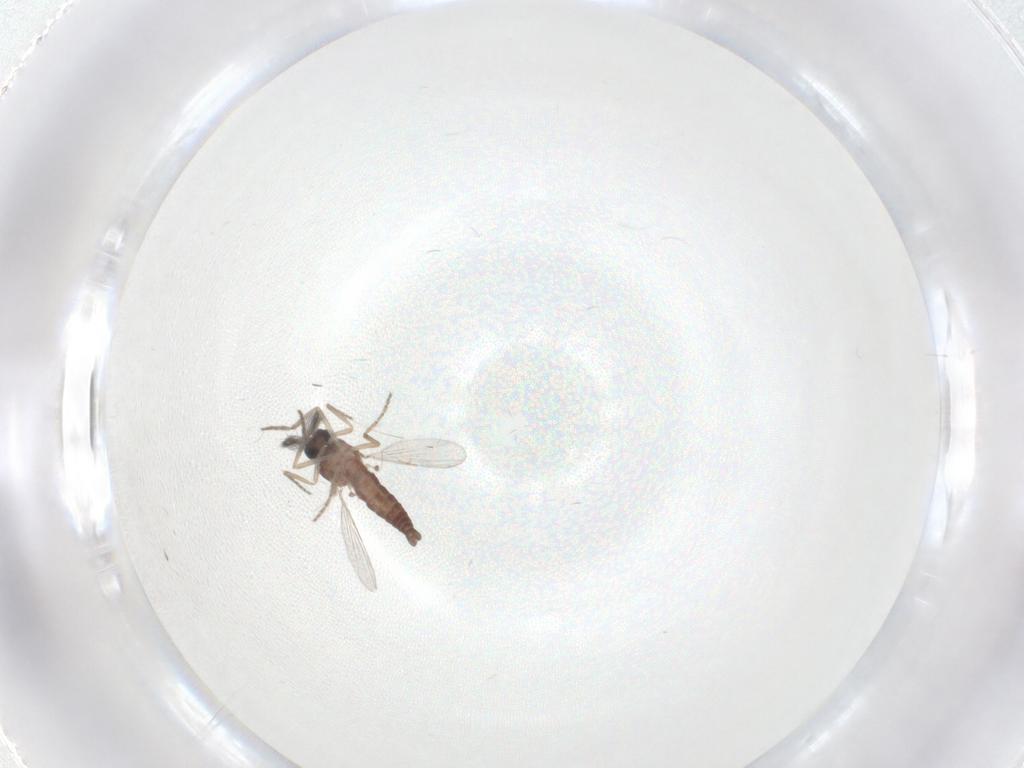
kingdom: Animalia
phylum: Arthropoda
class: Insecta
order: Diptera
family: Ceratopogonidae
